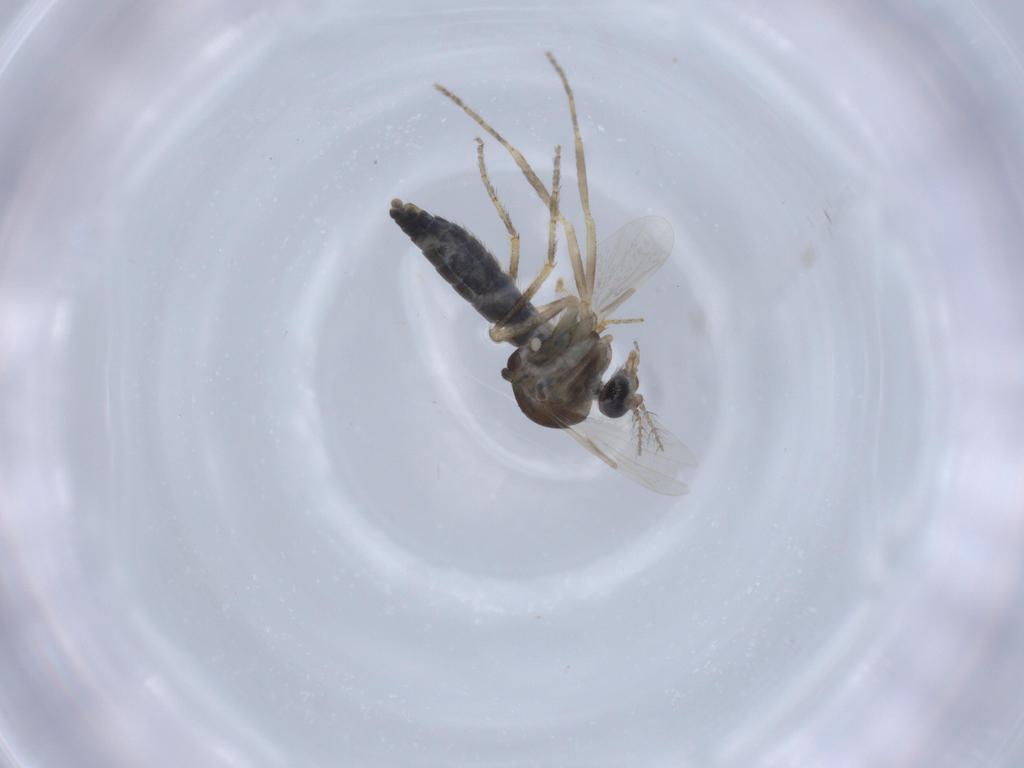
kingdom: Animalia
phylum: Arthropoda
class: Insecta
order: Diptera
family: Ceratopogonidae
